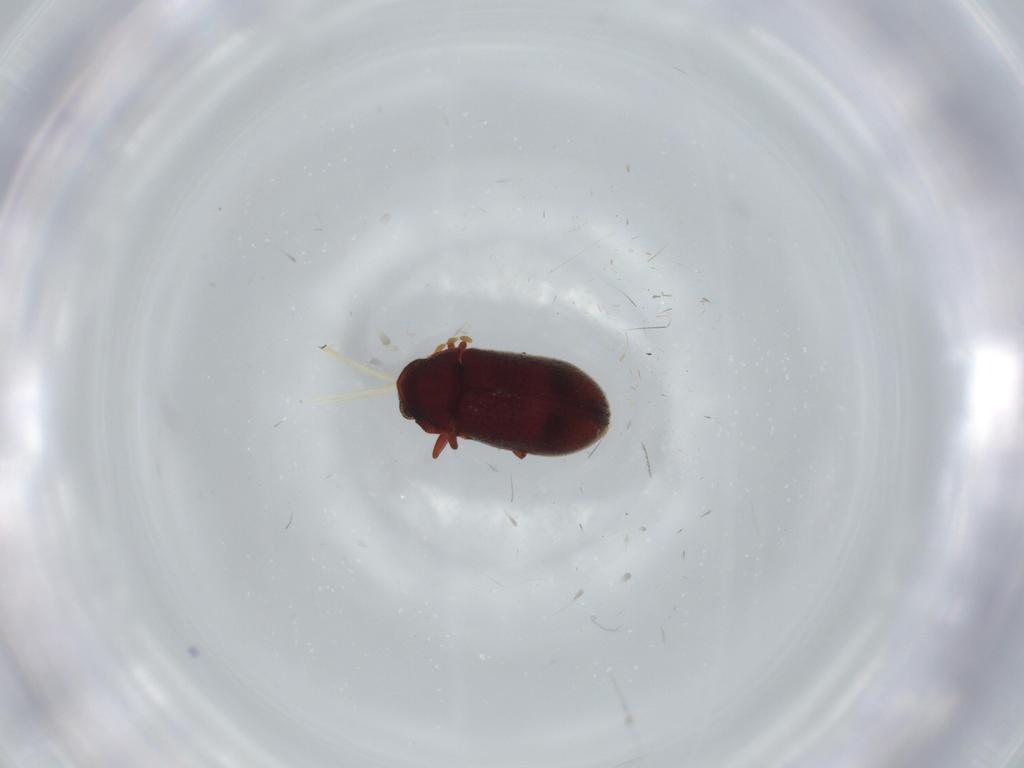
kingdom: Animalia
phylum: Arthropoda
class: Insecta
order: Coleoptera
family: Anobiidae
